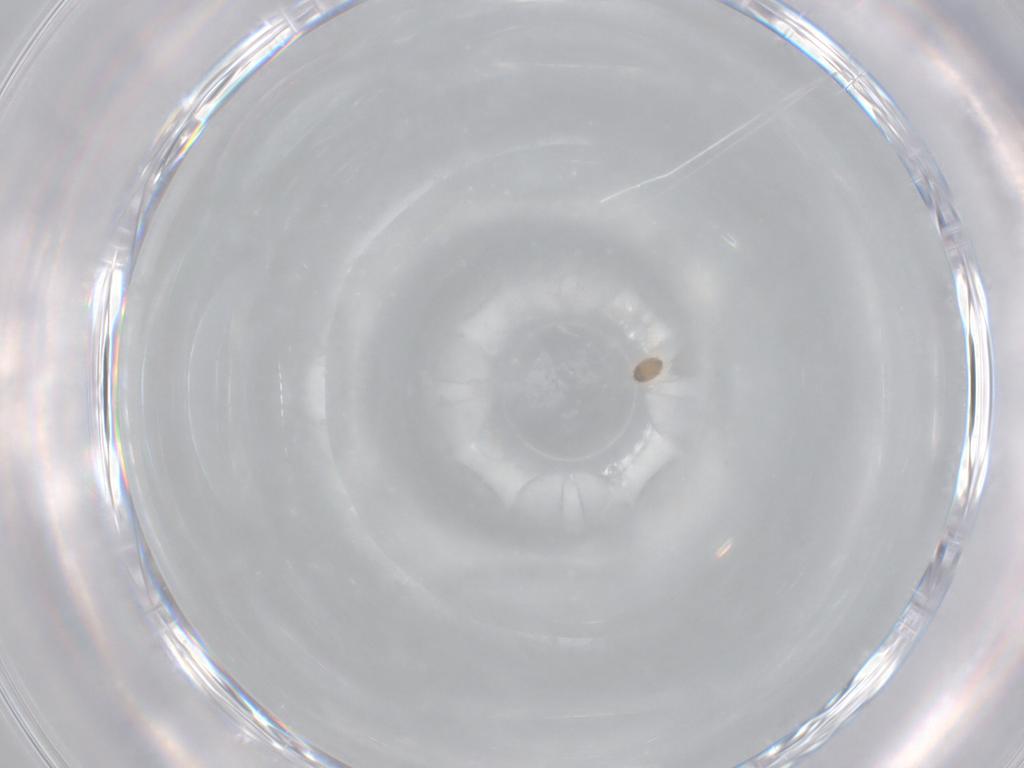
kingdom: Animalia
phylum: Arthropoda
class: Arachnida
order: Araneae
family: Clubionidae
